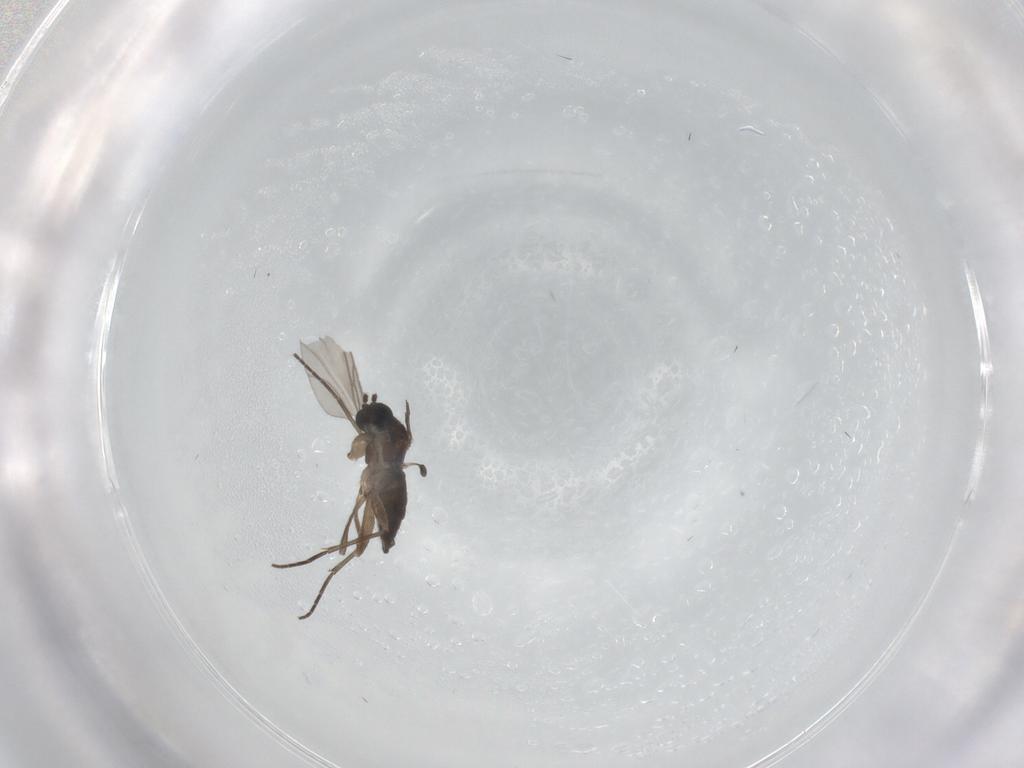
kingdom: Animalia
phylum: Arthropoda
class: Insecta
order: Diptera
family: Sciaridae
